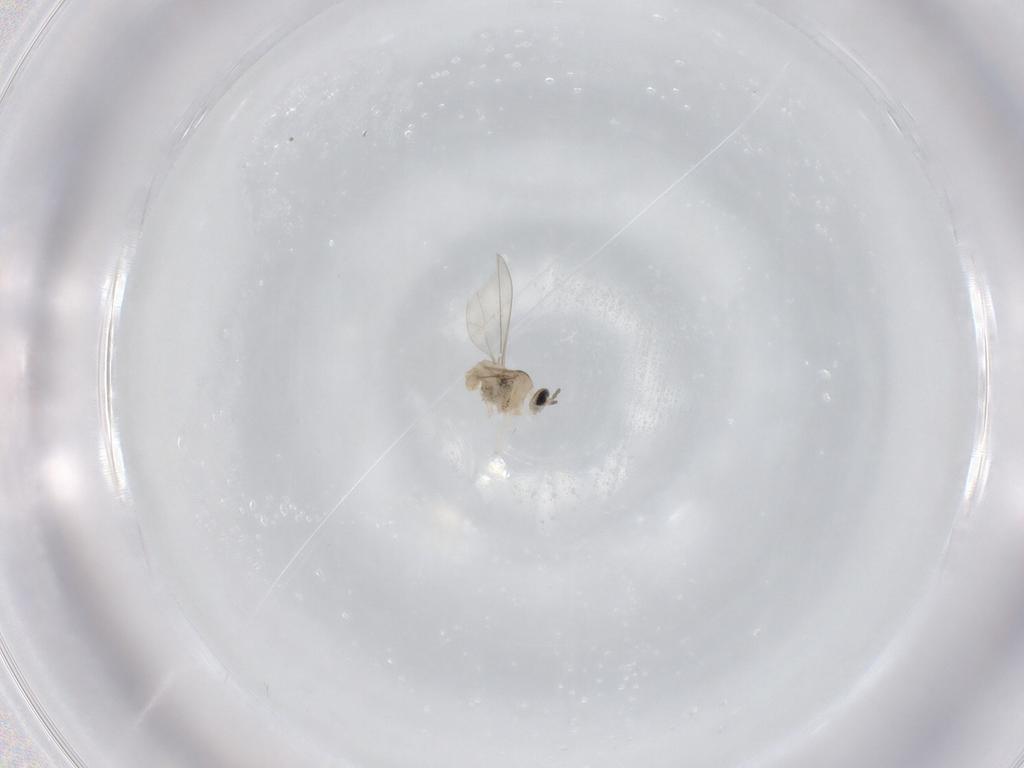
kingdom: Animalia
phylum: Arthropoda
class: Insecta
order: Diptera
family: Cecidomyiidae
